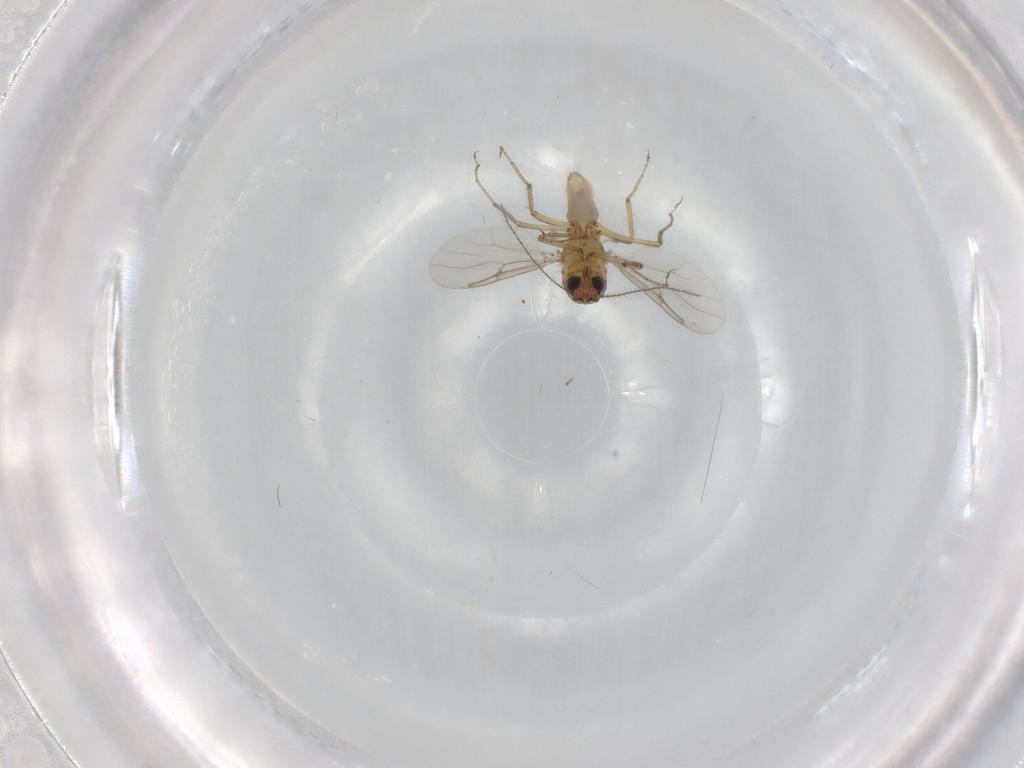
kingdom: Animalia
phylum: Arthropoda
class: Insecta
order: Diptera
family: Ceratopogonidae
